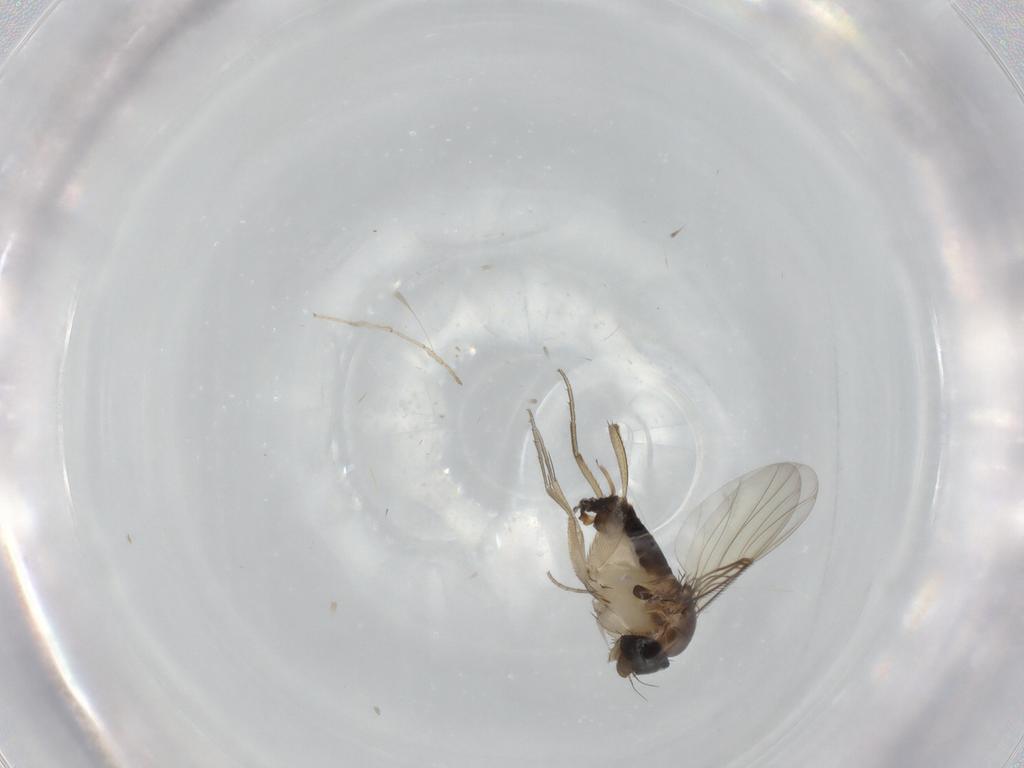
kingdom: Animalia
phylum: Arthropoda
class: Insecta
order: Diptera
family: Phoridae
